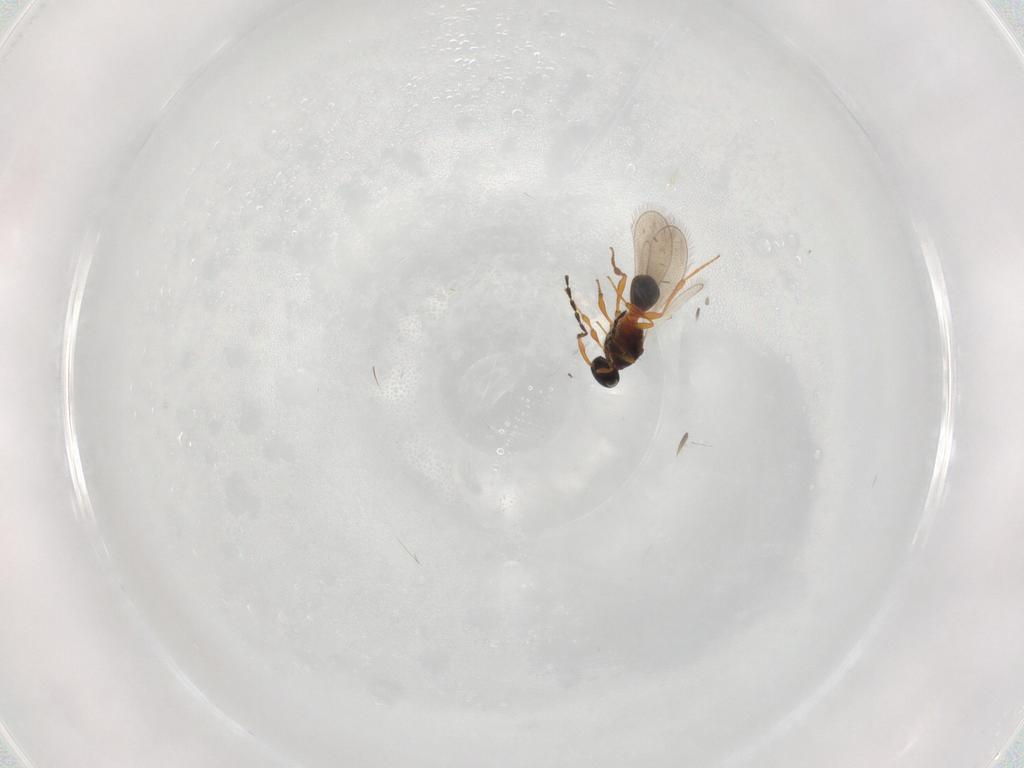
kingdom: Animalia
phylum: Arthropoda
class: Insecta
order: Hymenoptera
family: Platygastridae
